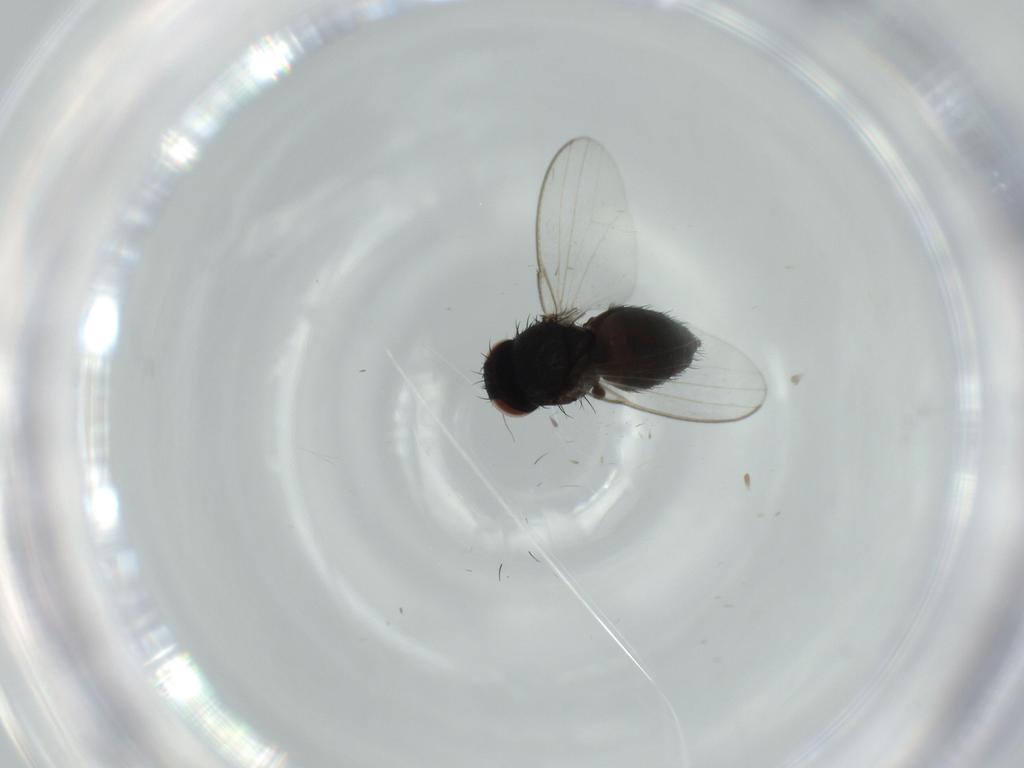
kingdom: Animalia
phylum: Arthropoda
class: Insecta
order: Diptera
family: Milichiidae
